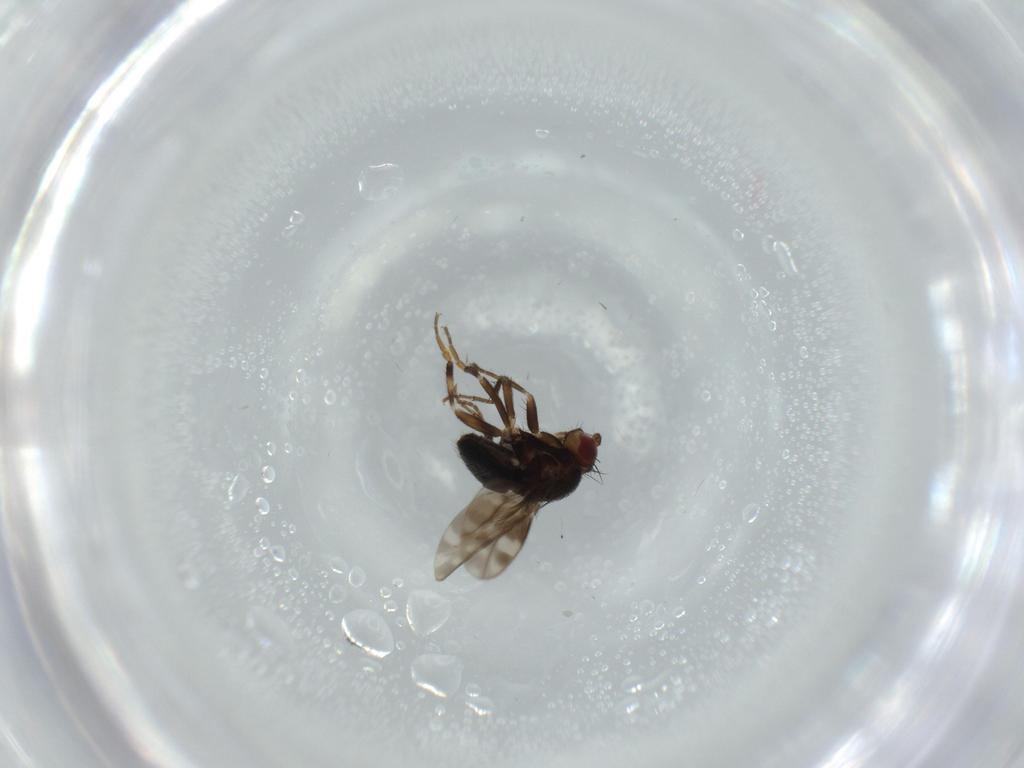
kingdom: Animalia
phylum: Arthropoda
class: Insecta
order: Diptera
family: Sphaeroceridae
